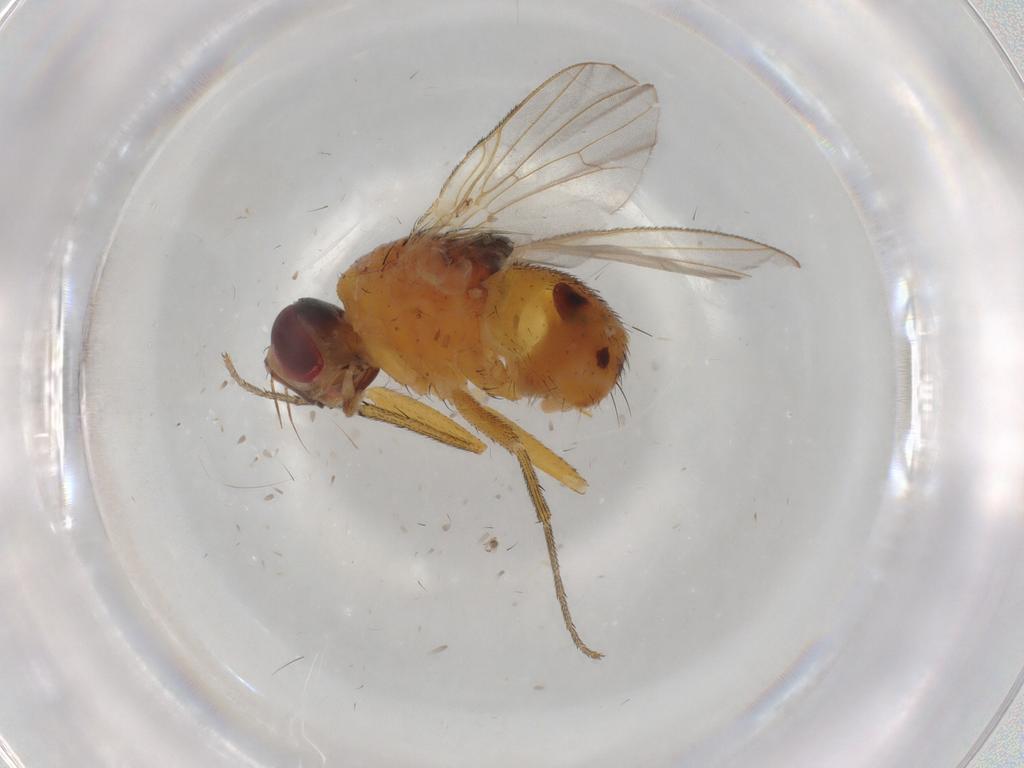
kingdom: Animalia
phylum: Arthropoda
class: Insecta
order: Diptera
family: Muscidae
